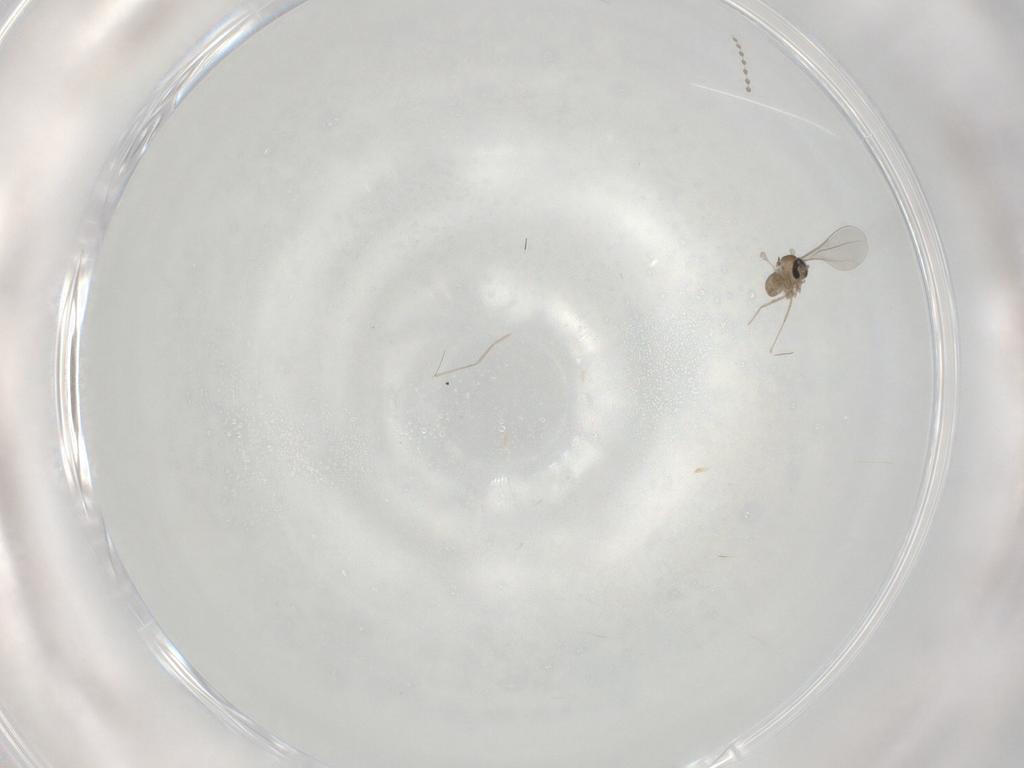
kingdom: Animalia
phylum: Arthropoda
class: Insecta
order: Diptera
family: Cecidomyiidae
